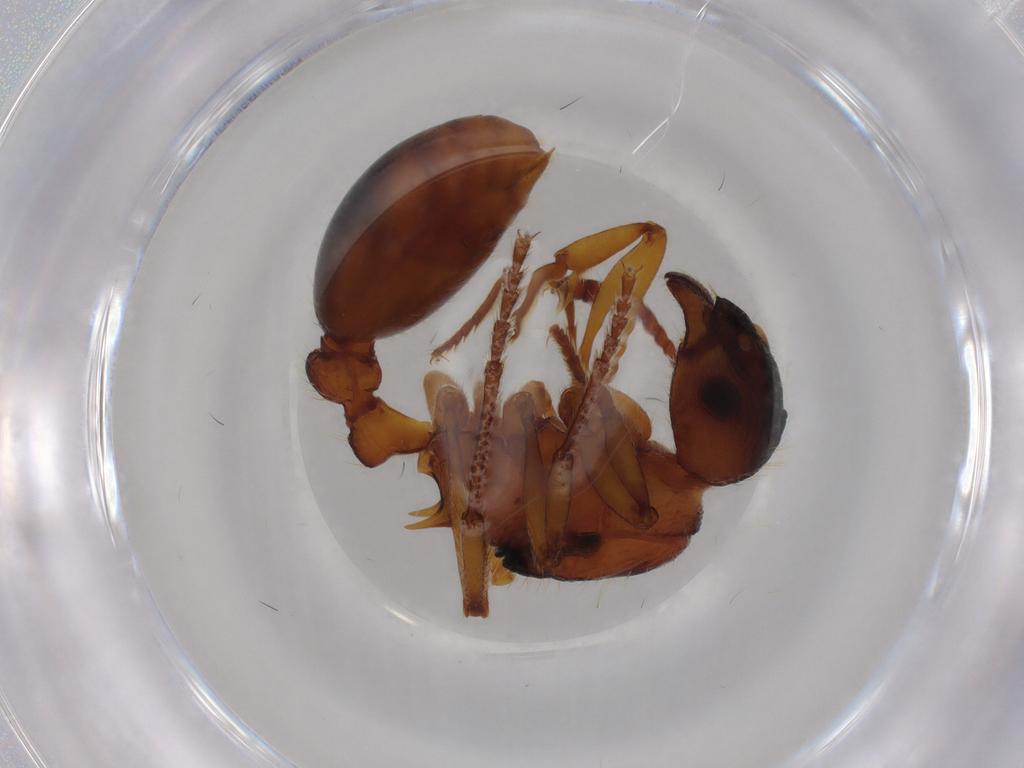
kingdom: Animalia
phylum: Arthropoda
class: Insecta
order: Hymenoptera
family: Formicidae
